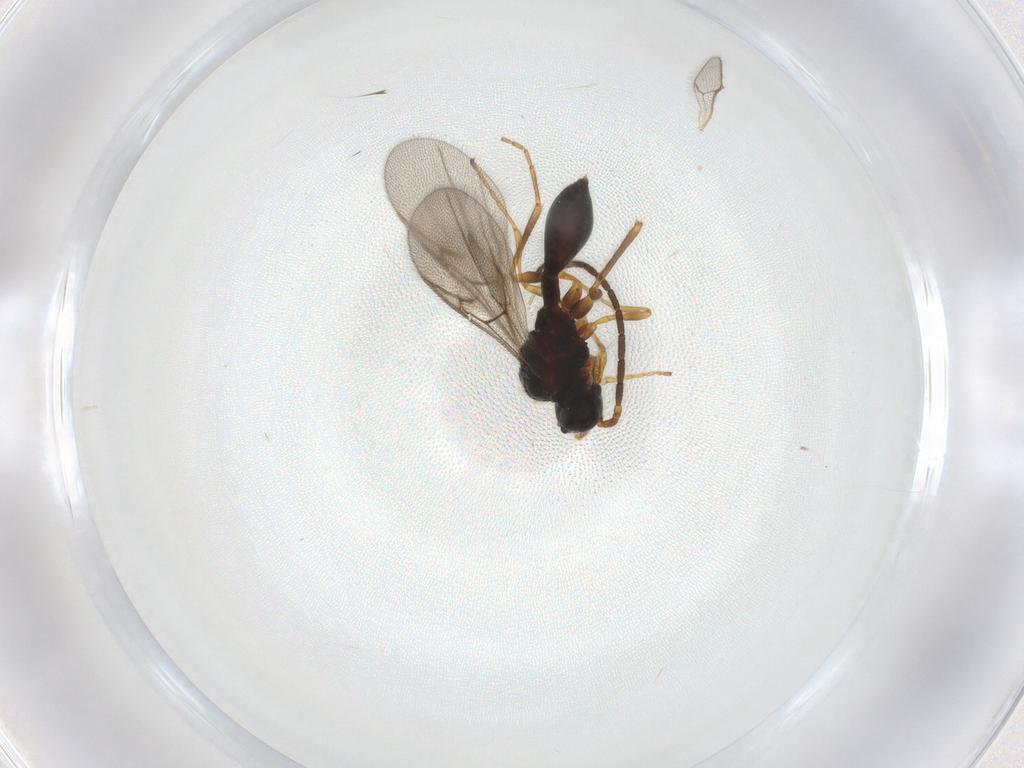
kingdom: Animalia
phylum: Arthropoda
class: Insecta
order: Hymenoptera
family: Diapriidae
